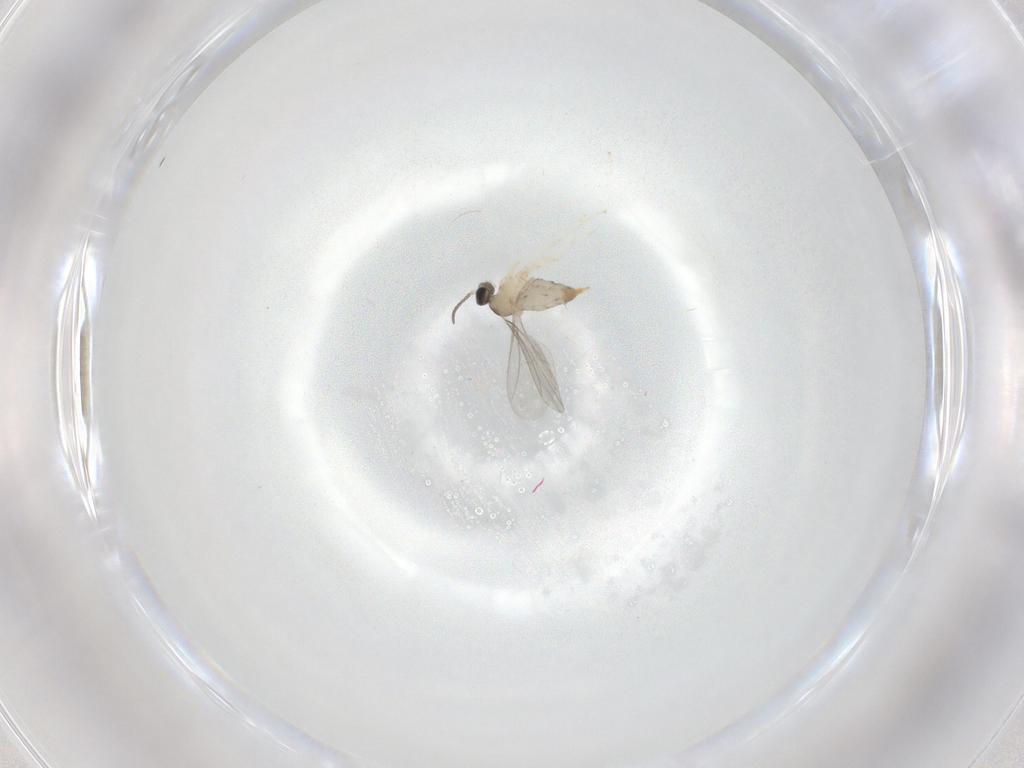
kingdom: Animalia
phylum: Arthropoda
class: Insecta
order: Diptera
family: Cecidomyiidae
